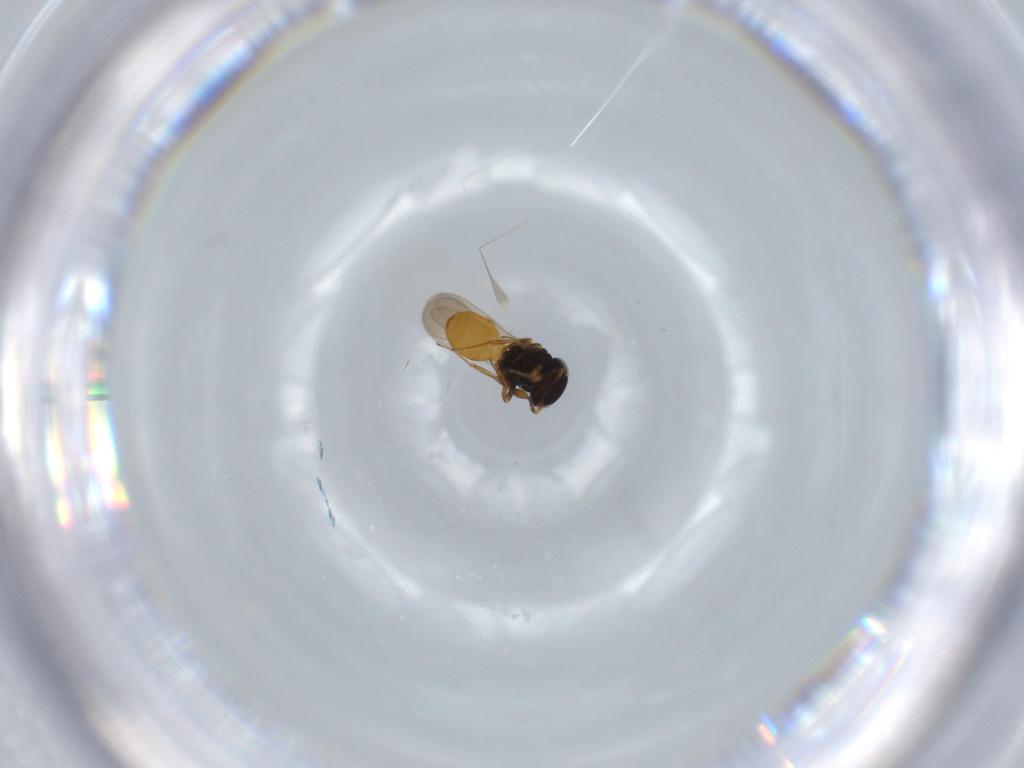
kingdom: Animalia
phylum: Arthropoda
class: Insecta
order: Hymenoptera
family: Scelionidae
